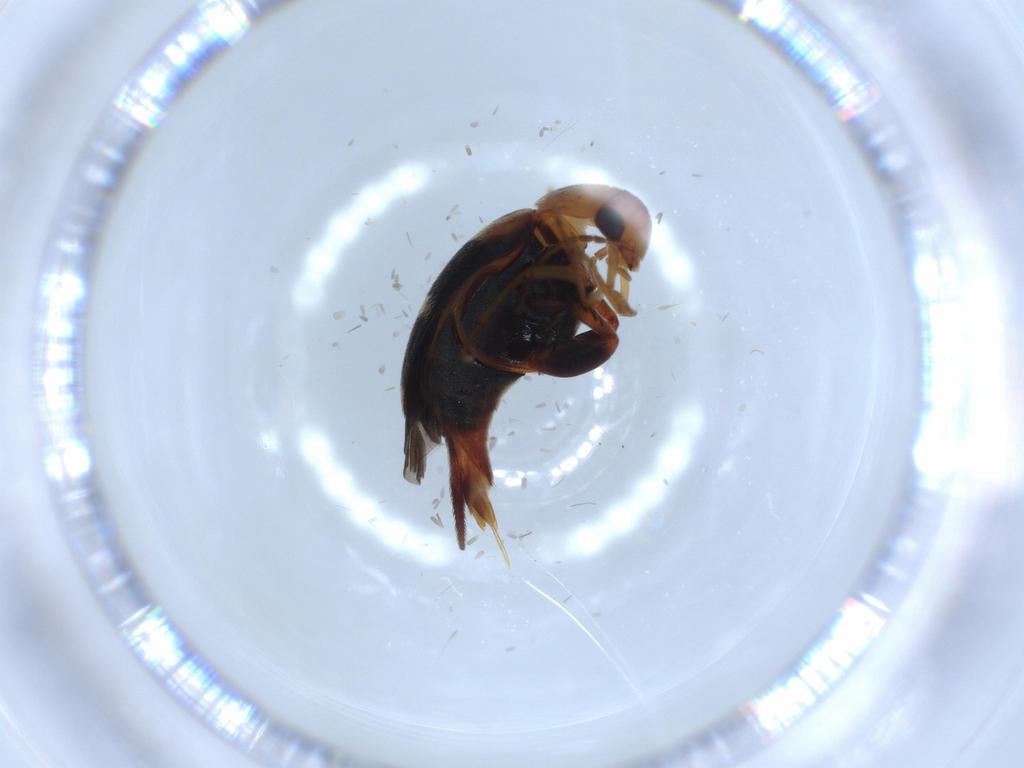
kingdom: Animalia
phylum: Arthropoda
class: Insecta
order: Coleoptera
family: Mordellidae
